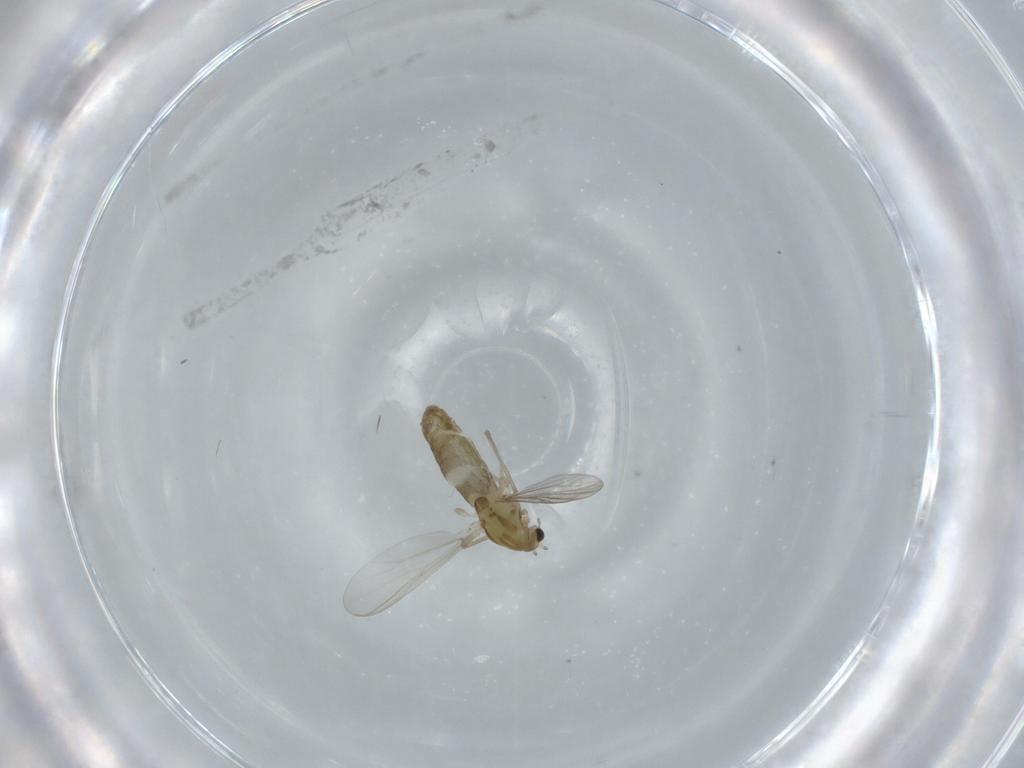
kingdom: Animalia
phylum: Arthropoda
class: Insecta
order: Diptera
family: Chironomidae
